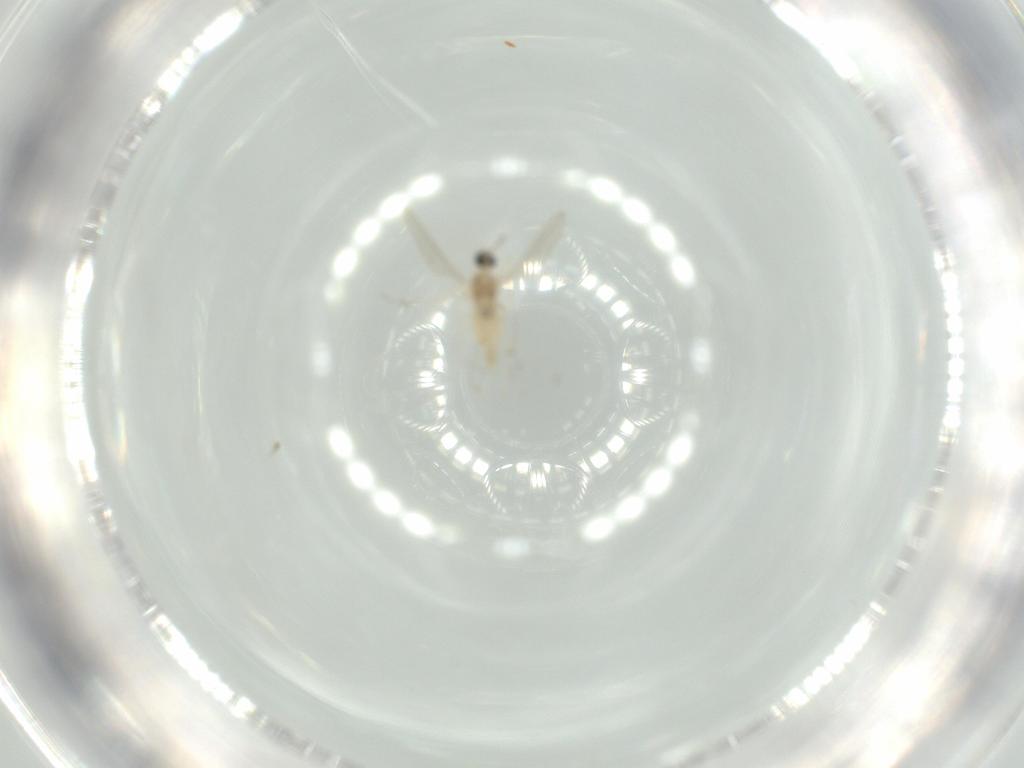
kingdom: Animalia
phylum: Arthropoda
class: Insecta
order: Diptera
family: Cecidomyiidae
